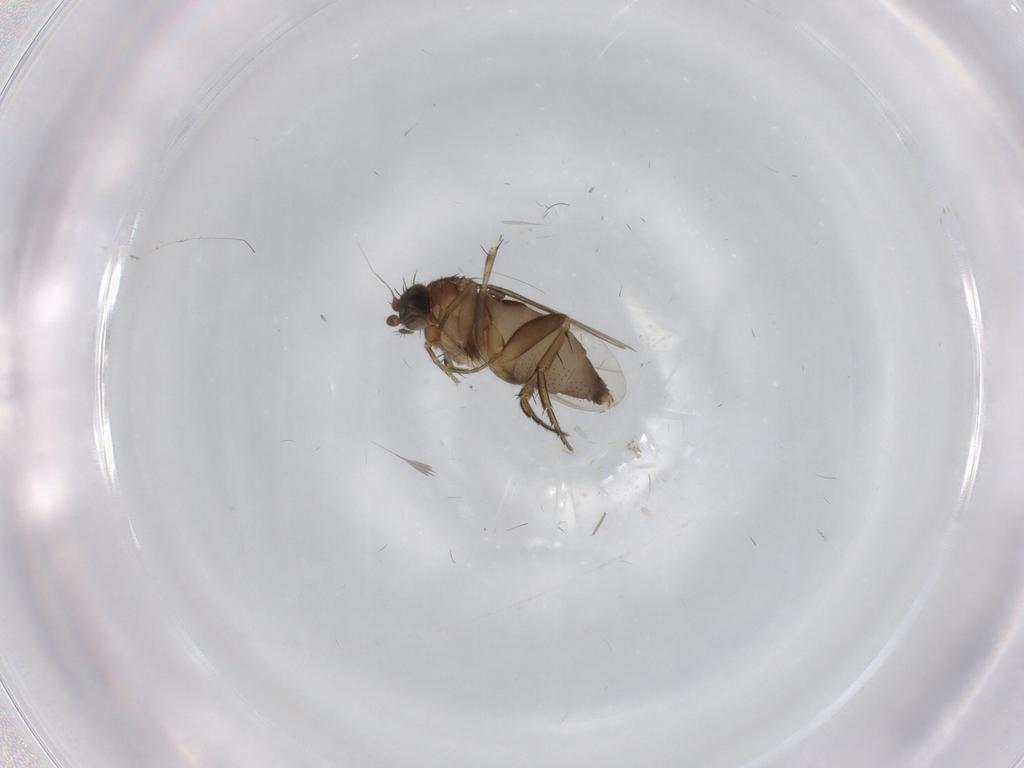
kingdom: Animalia
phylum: Arthropoda
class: Insecta
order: Diptera
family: Phoridae
